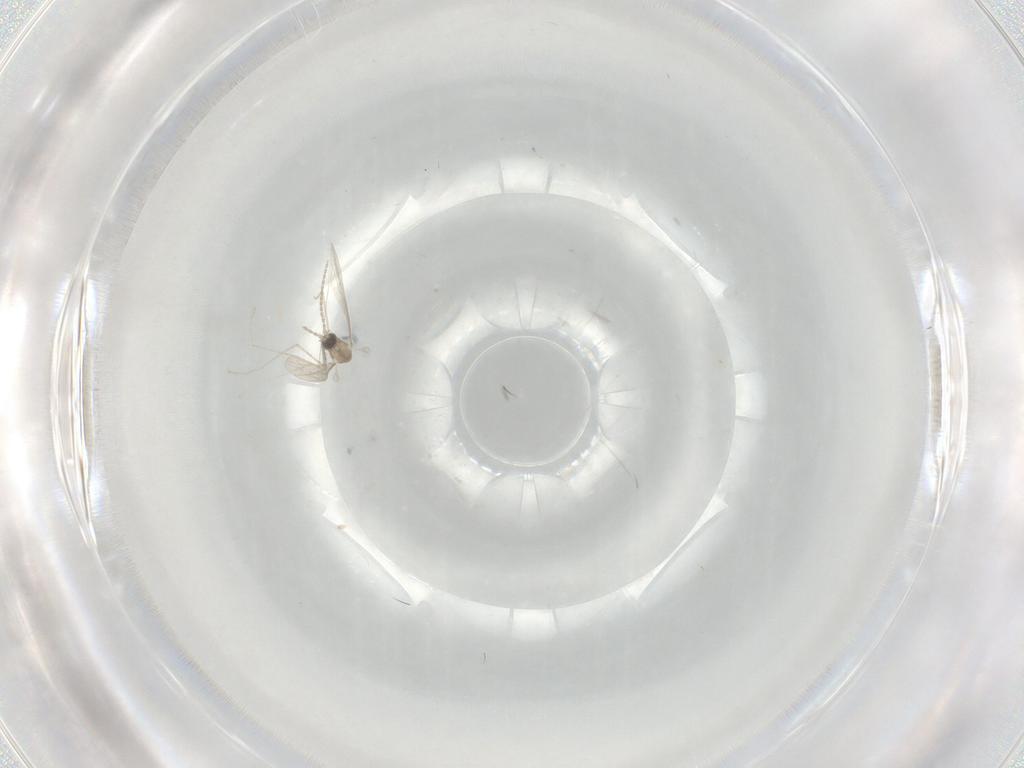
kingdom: Animalia
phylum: Arthropoda
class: Insecta
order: Diptera
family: Cecidomyiidae
